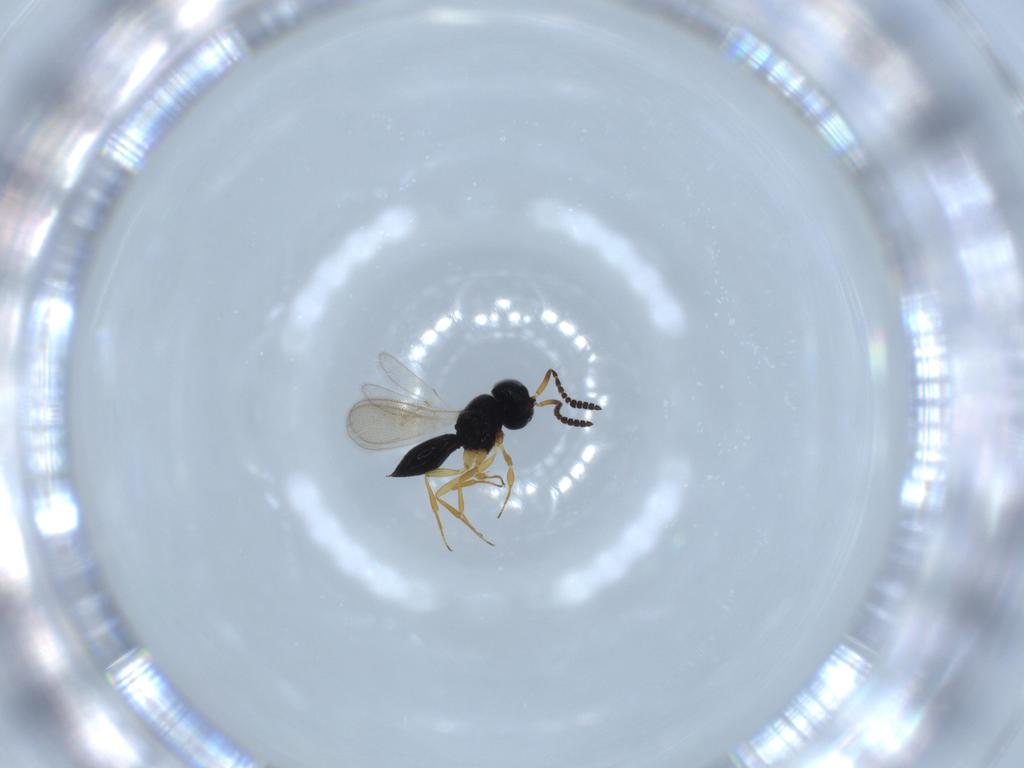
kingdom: Animalia
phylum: Arthropoda
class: Insecta
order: Hymenoptera
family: Scelionidae
